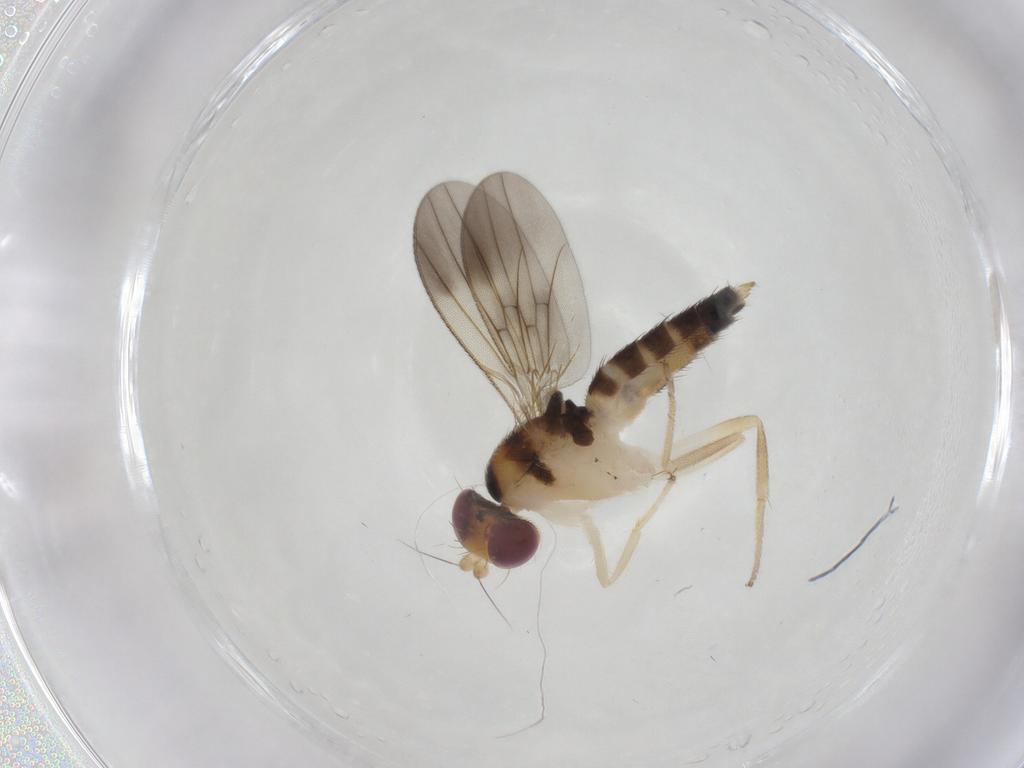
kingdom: Animalia
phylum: Arthropoda
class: Insecta
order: Diptera
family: Clusiidae
